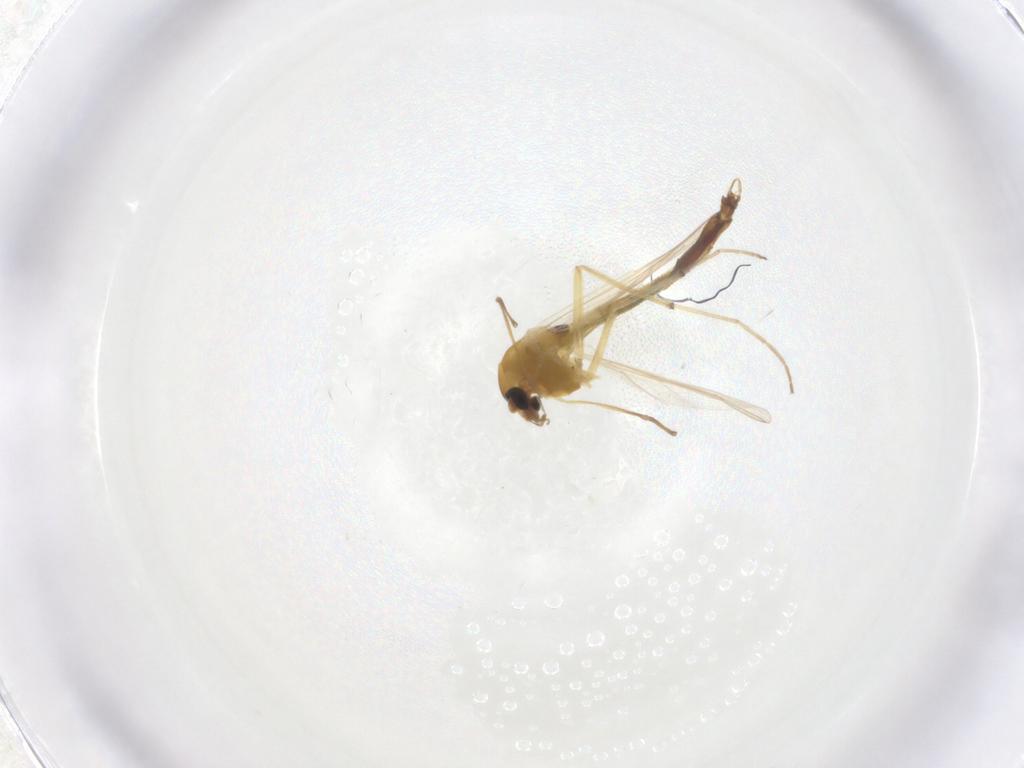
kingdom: Animalia
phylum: Arthropoda
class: Insecta
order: Diptera
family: Chironomidae
